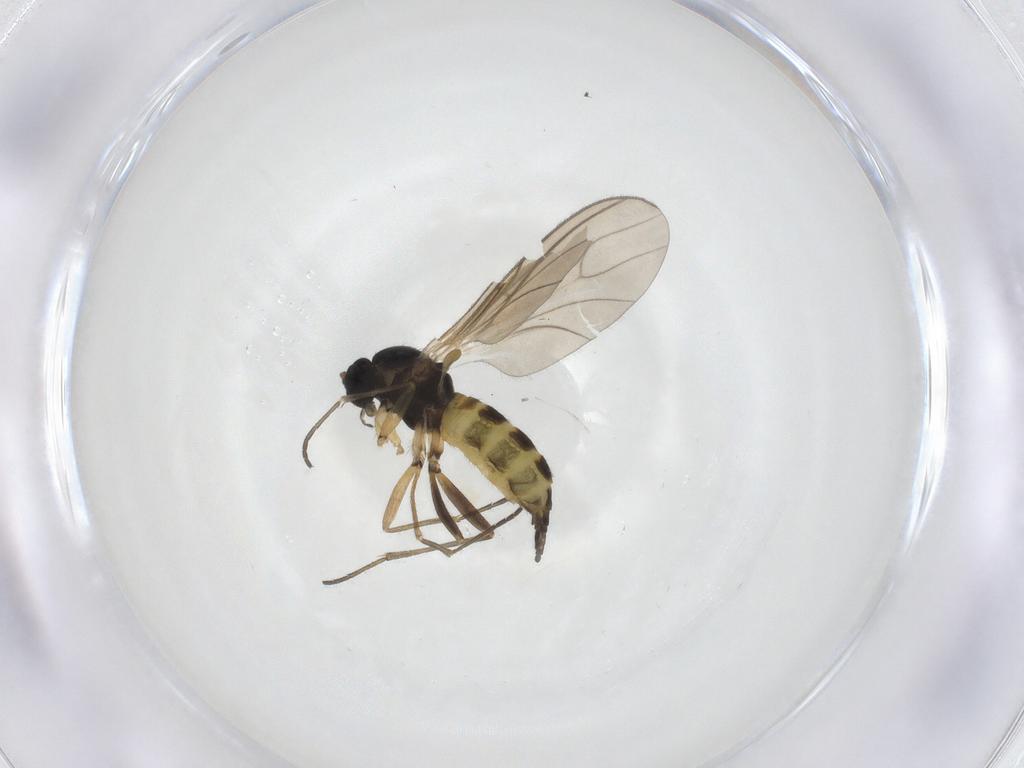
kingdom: Animalia
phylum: Arthropoda
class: Insecta
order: Diptera
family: Sciaridae
